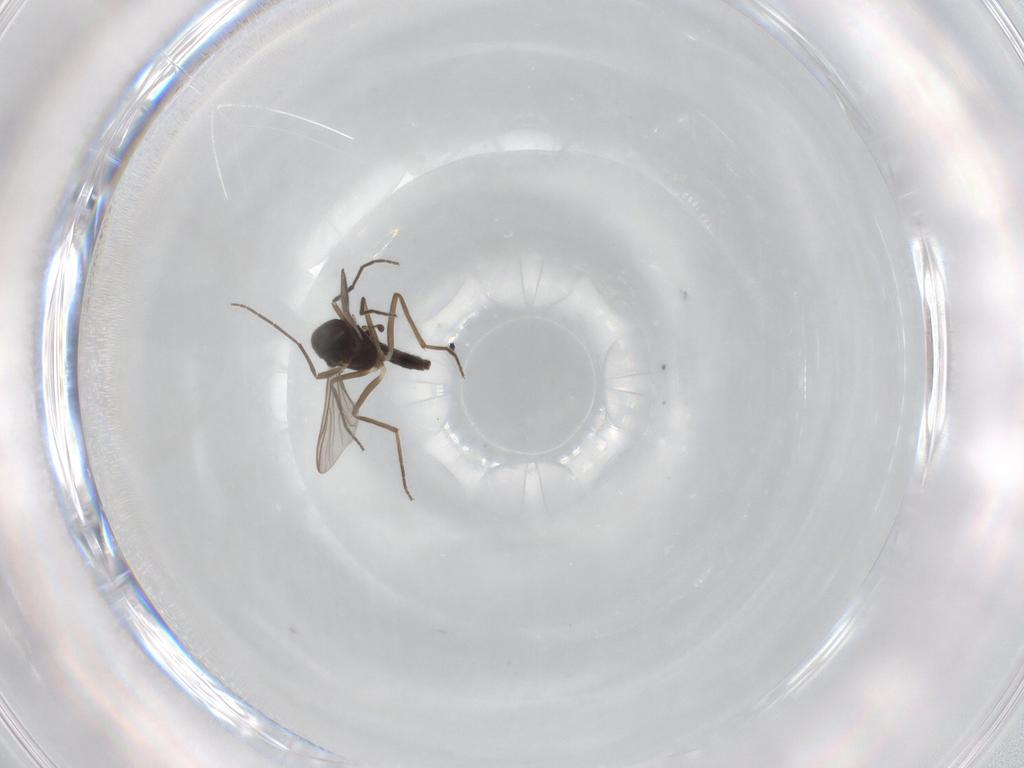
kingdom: Animalia
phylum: Arthropoda
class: Insecta
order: Diptera
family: Chironomidae
